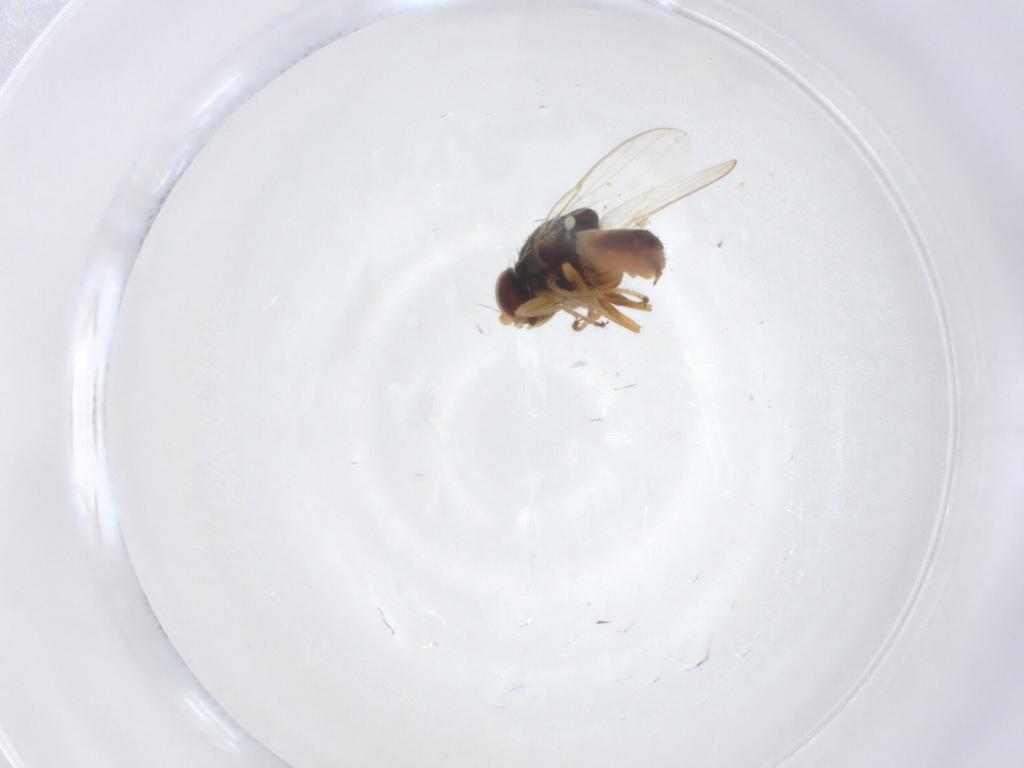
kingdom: Animalia
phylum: Arthropoda
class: Insecta
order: Diptera
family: Chloropidae
